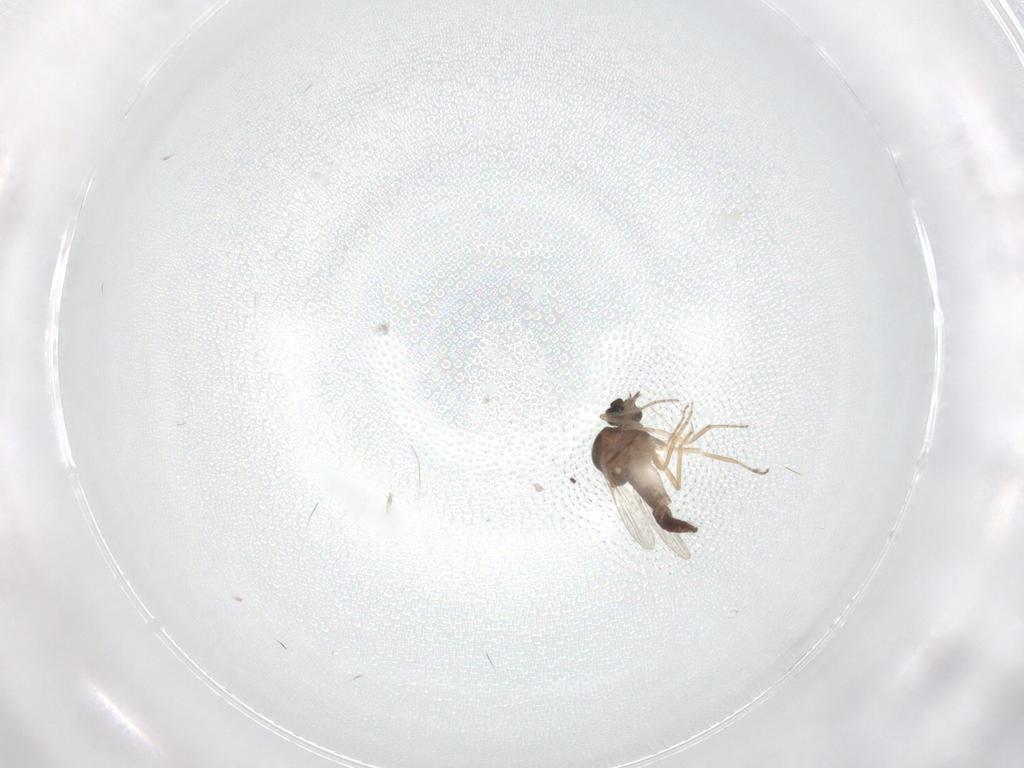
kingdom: Animalia
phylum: Arthropoda
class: Insecta
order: Diptera
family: Ceratopogonidae
